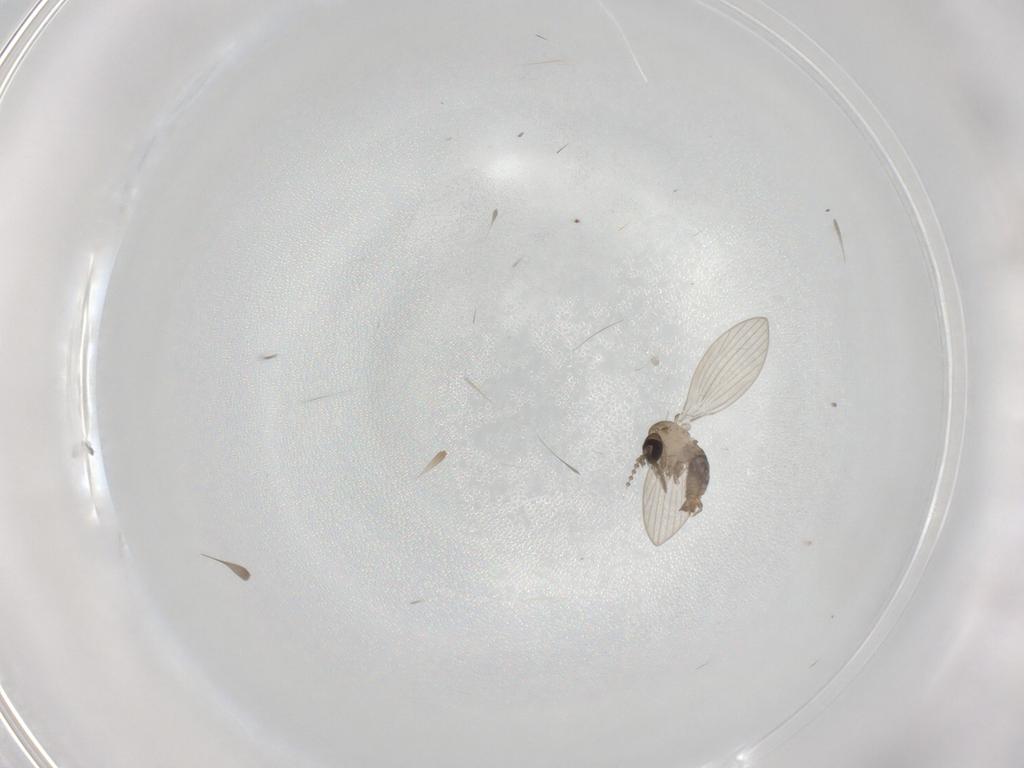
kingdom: Animalia
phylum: Arthropoda
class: Insecta
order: Diptera
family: Psychodidae
